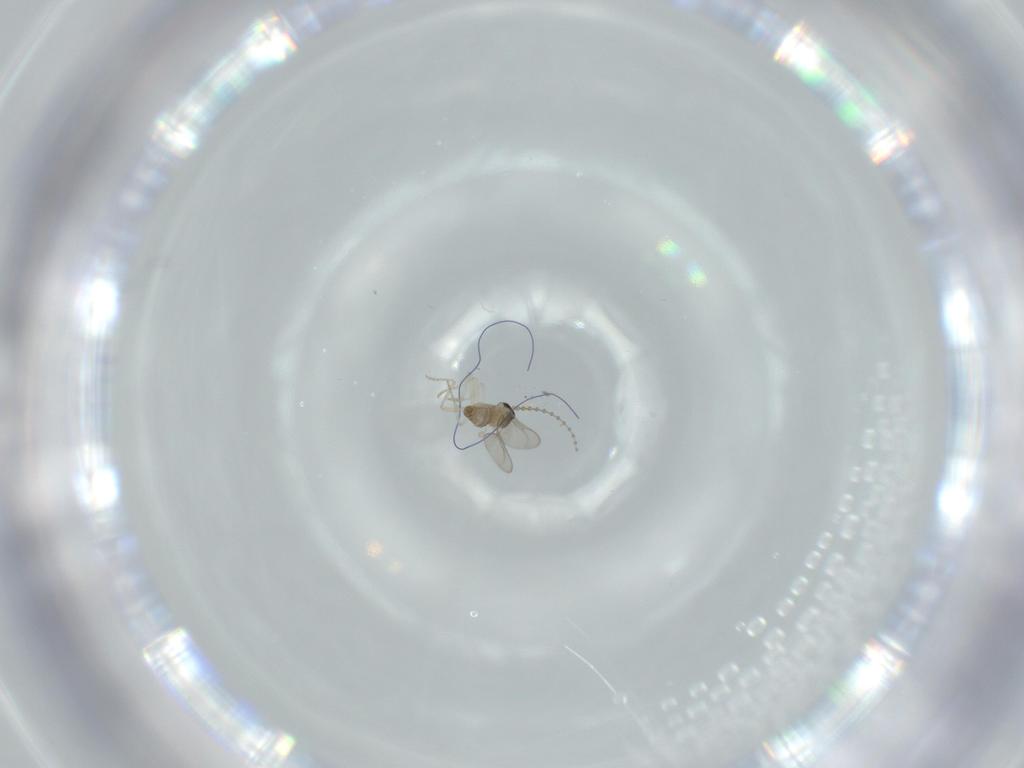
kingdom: Animalia
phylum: Arthropoda
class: Insecta
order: Diptera
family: Cecidomyiidae
